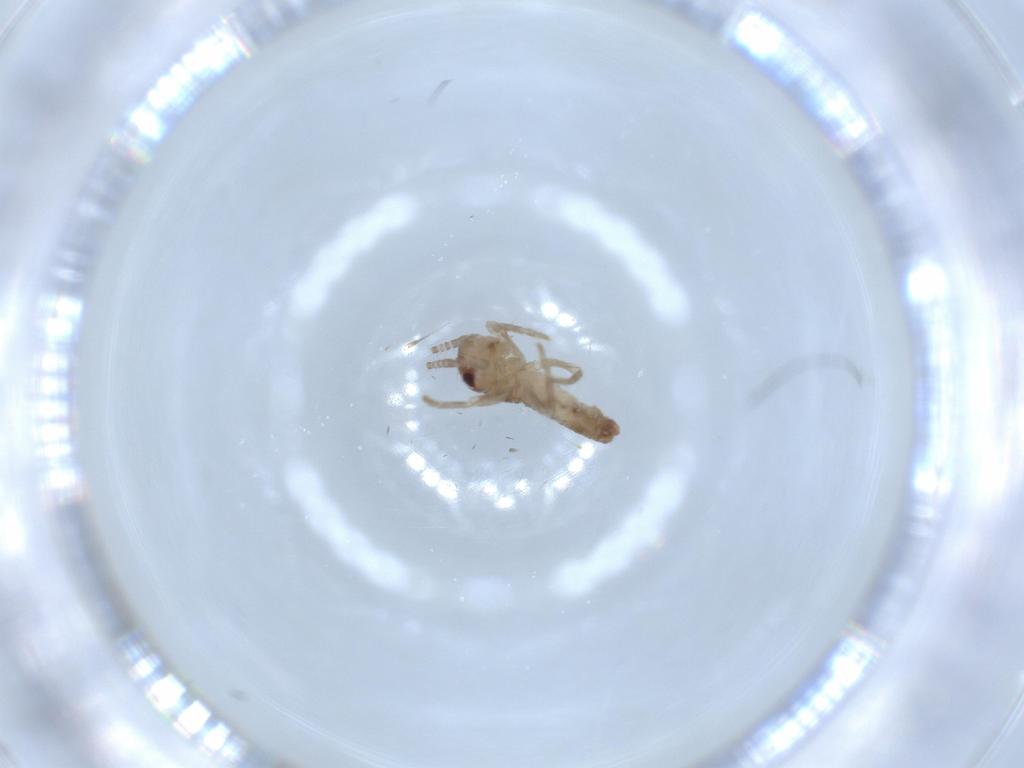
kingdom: Animalia
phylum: Arthropoda
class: Insecta
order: Orthoptera
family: Gryllidae
